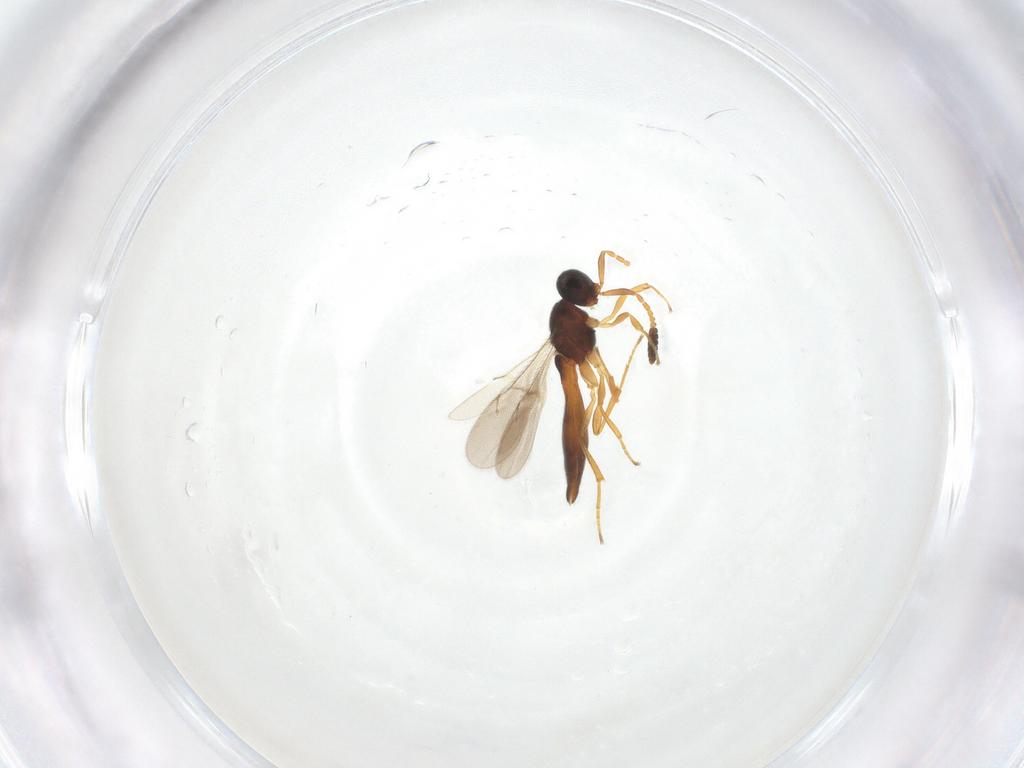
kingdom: Animalia
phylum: Arthropoda
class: Insecta
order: Hymenoptera
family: Scelionidae
